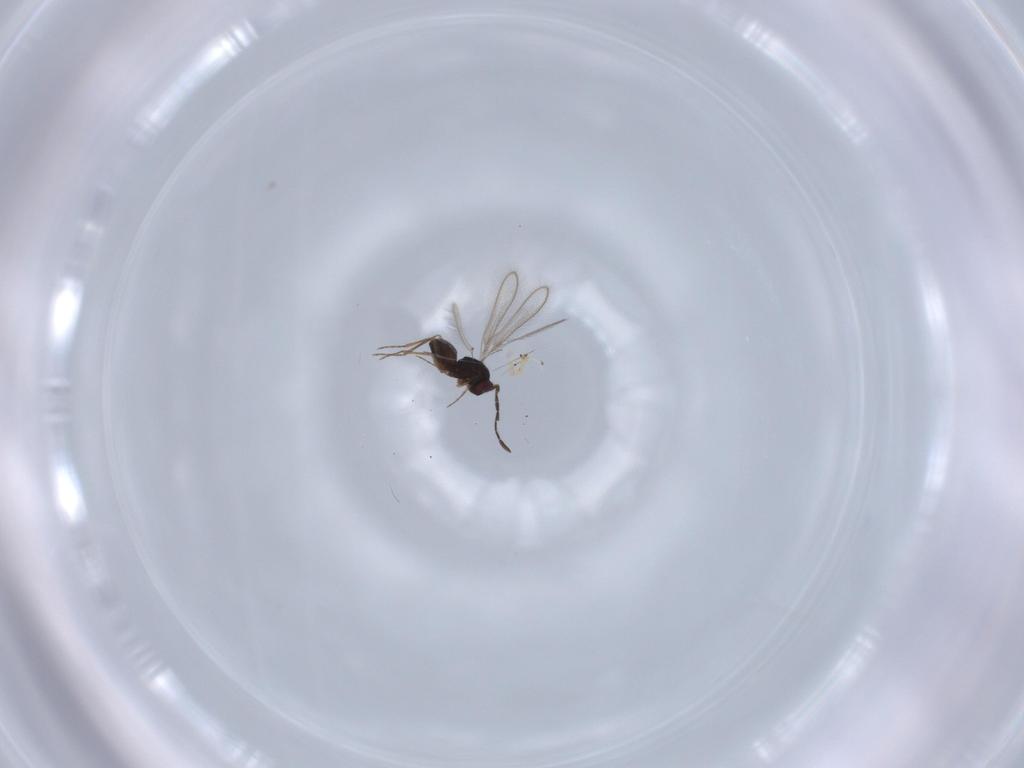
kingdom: Animalia
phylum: Arthropoda
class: Insecta
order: Hymenoptera
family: Mymaridae
